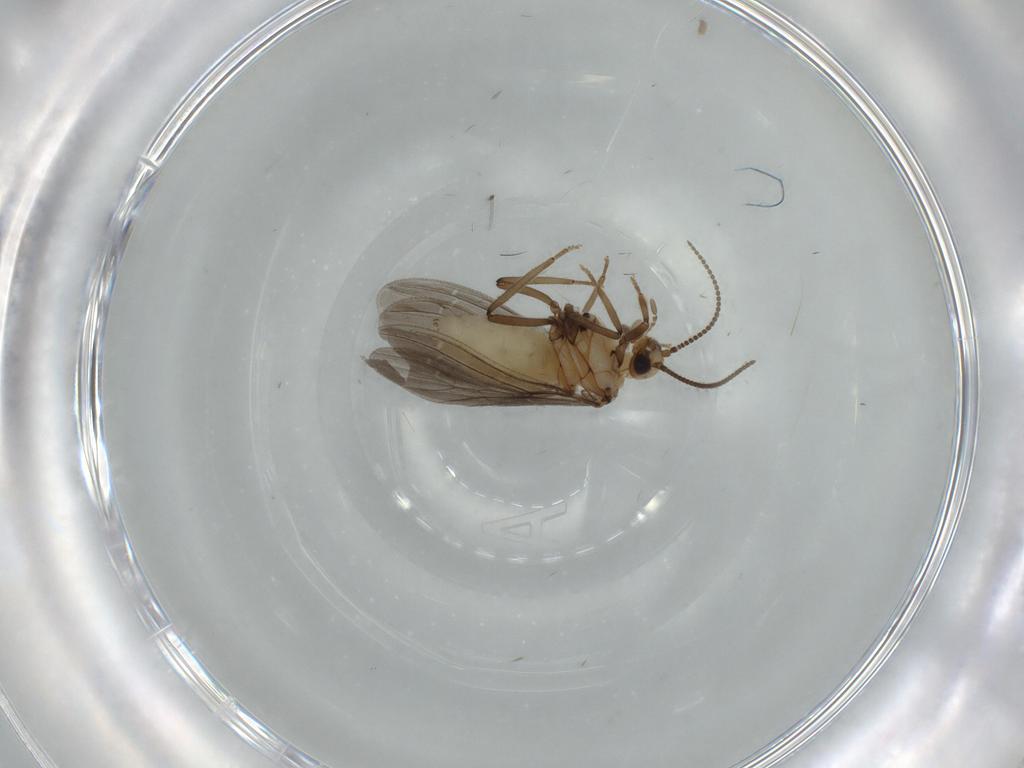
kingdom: Animalia
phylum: Arthropoda
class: Insecta
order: Neuroptera
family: Coniopterygidae
